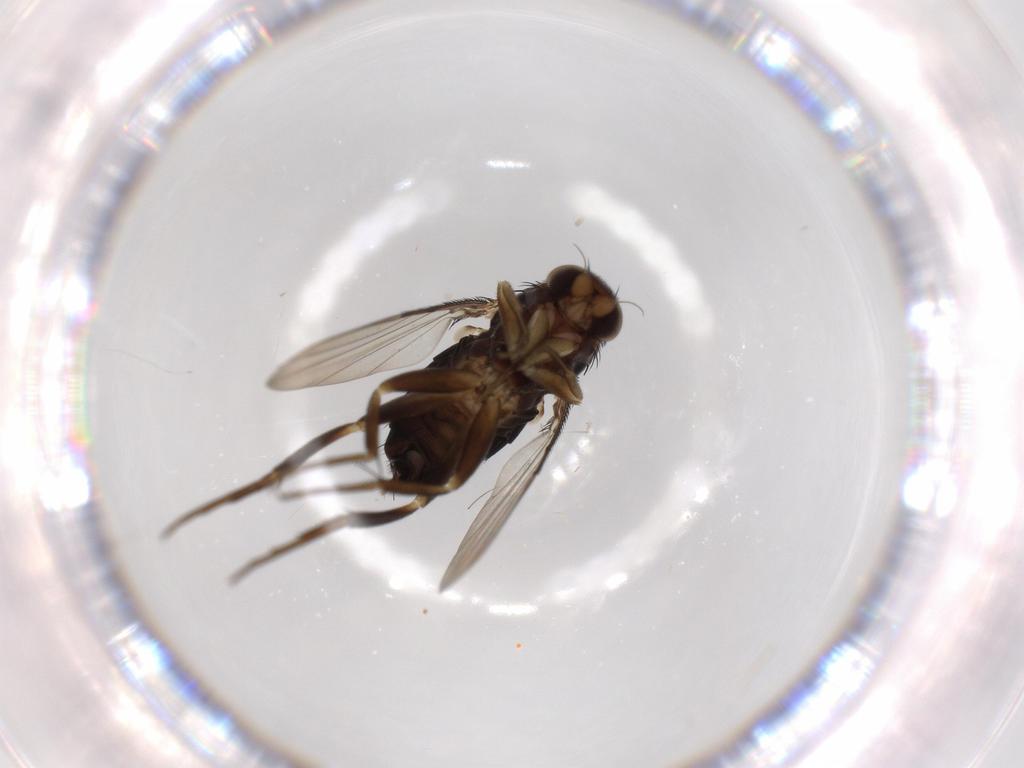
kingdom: Animalia
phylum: Arthropoda
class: Insecta
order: Diptera
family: Phoridae
